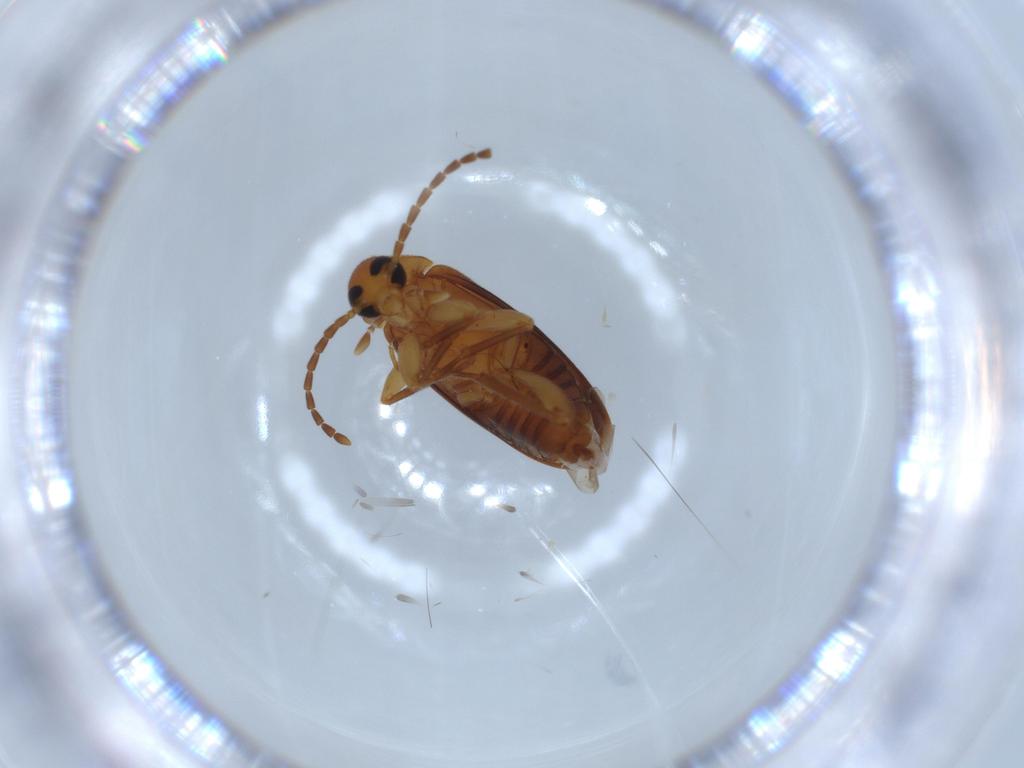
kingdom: Animalia
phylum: Arthropoda
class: Insecta
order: Coleoptera
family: Scraptiidae
